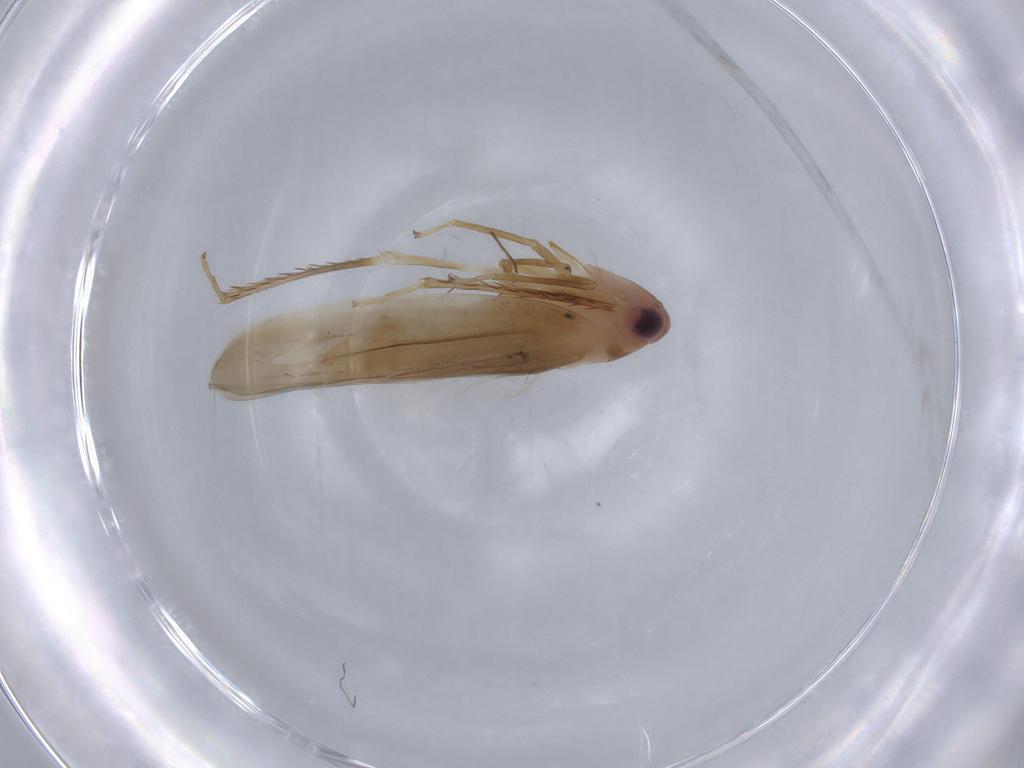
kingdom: Animalia
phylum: Arthropoda
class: Insecta
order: Hemiptera
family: Cicadellidae
